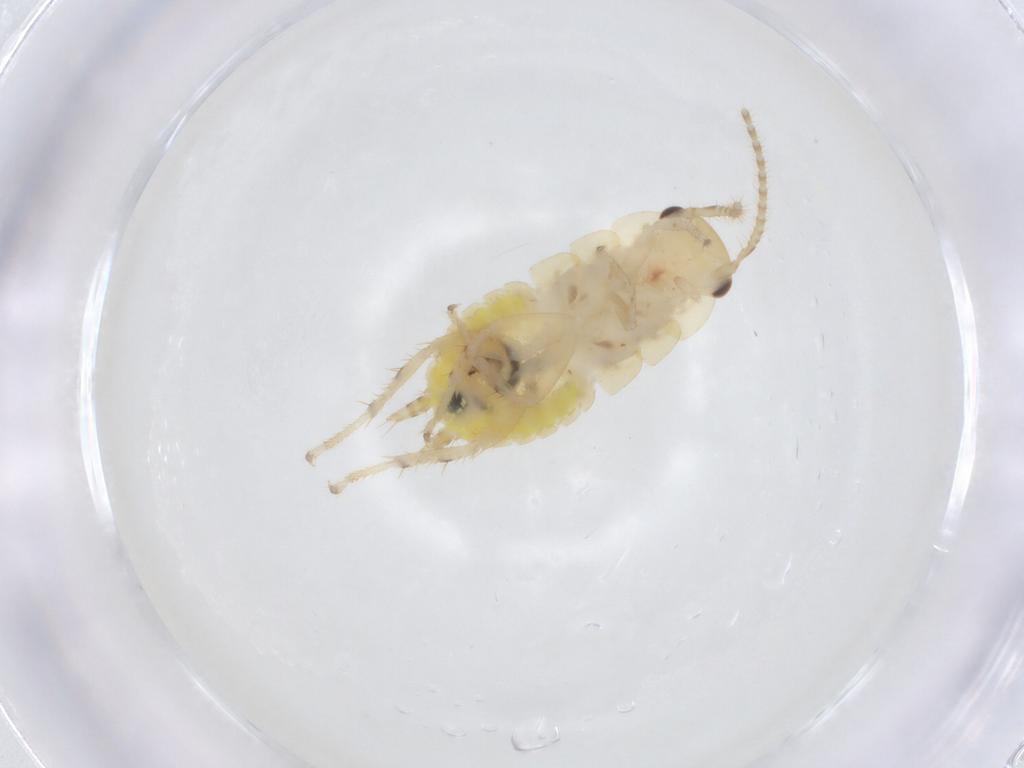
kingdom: Animalia
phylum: Arthropoda
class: Insecta
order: Blattodea
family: Ectobiidae
